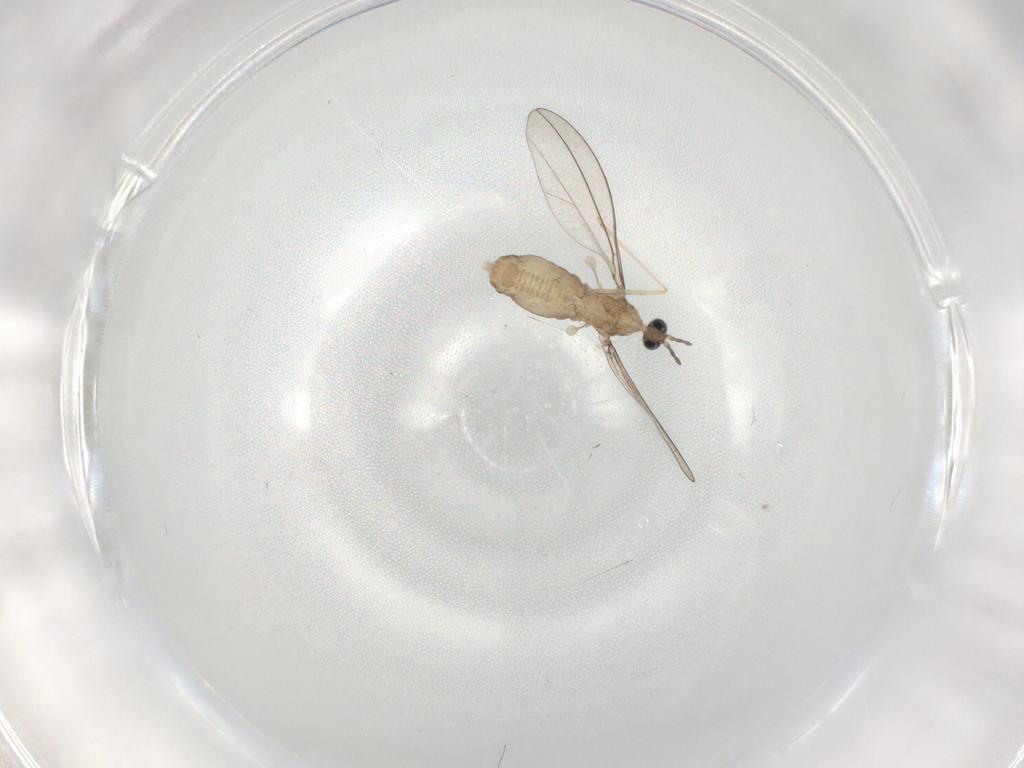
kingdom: Animalia
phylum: Arthropoda
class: Insecta
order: Diptera
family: Cecidomyiidae
